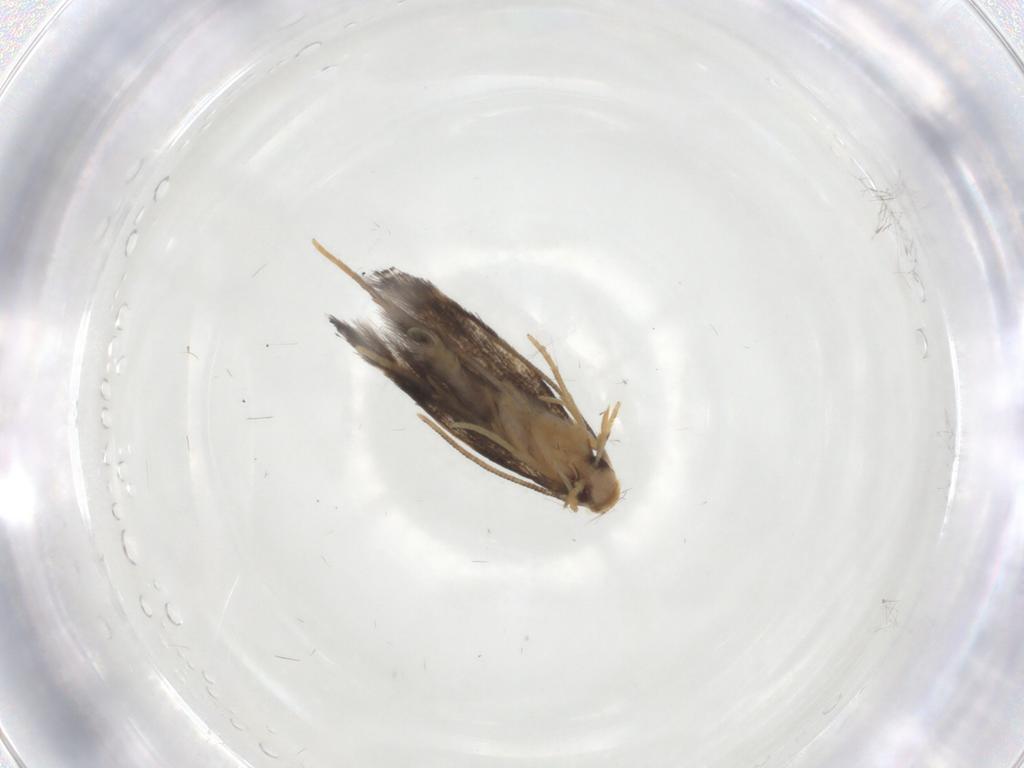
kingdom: Animalia
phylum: Arthropoda
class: Insecta
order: Lepidoptera
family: Gelechiidae
